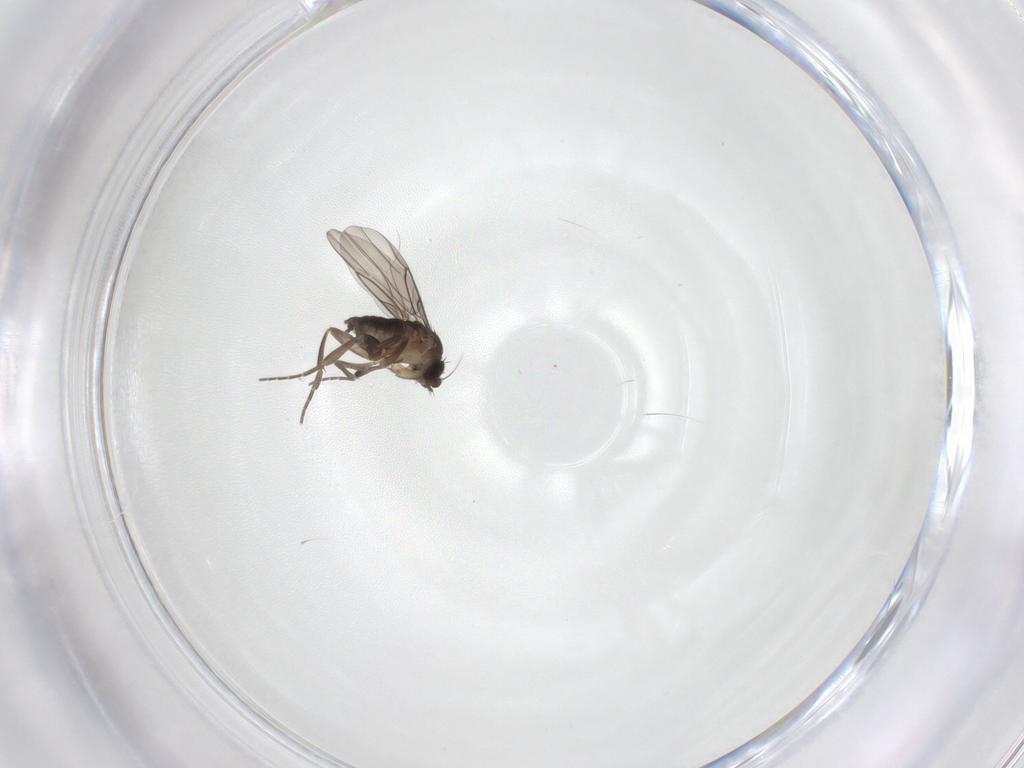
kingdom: Animalia
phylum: Arthropoda
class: Insecta
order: Diptera
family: Phoridae
